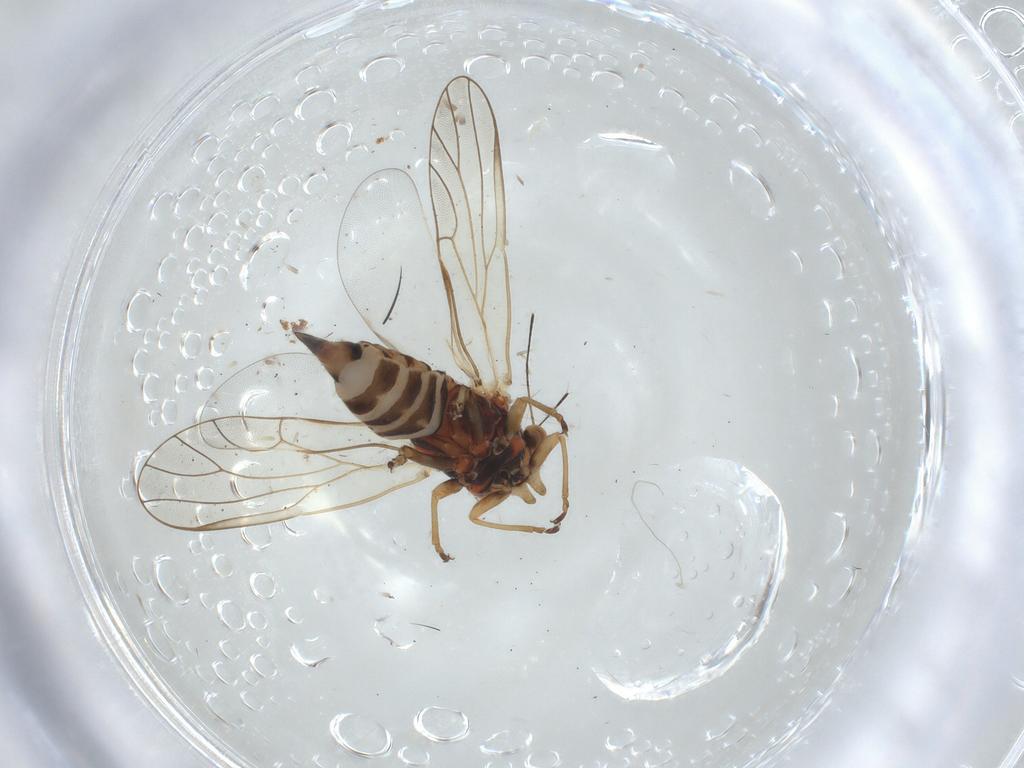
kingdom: Animalia
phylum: Arthropoda
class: Insecta
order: Hemiptera
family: Psyllidae
